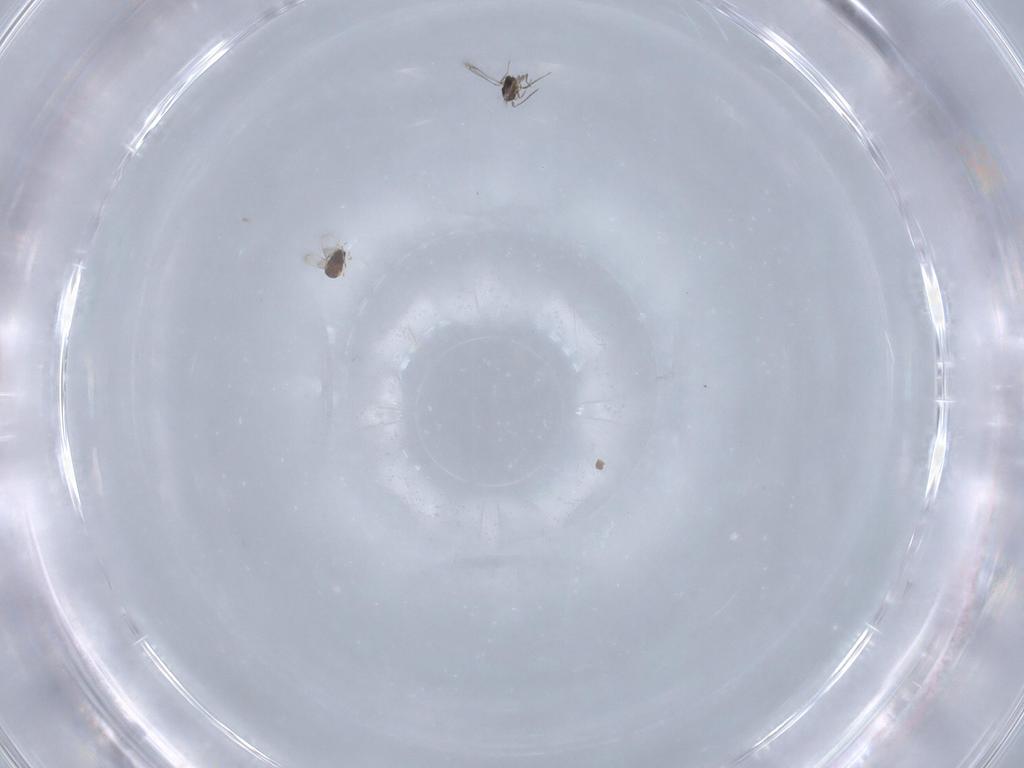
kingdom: Animalia
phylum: Arthropoda
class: Insecta
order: Hymenoptera
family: Mymaridae
